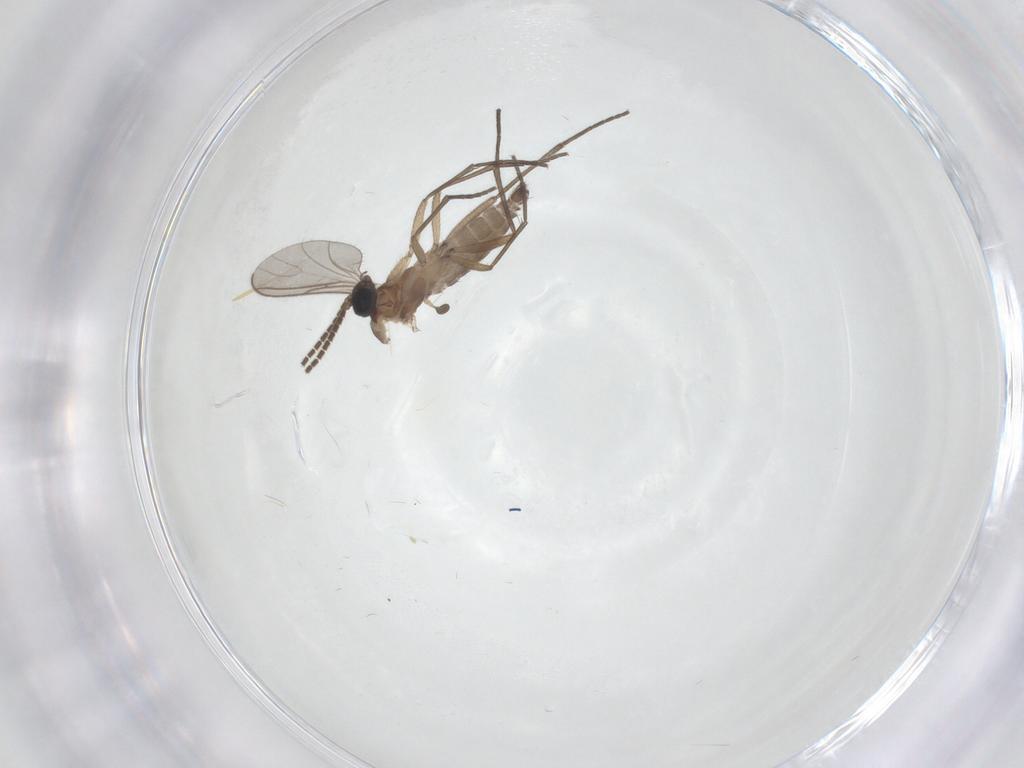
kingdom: Animalia
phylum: Arthropoda
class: Insecta
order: Diptera
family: Sciaridae
